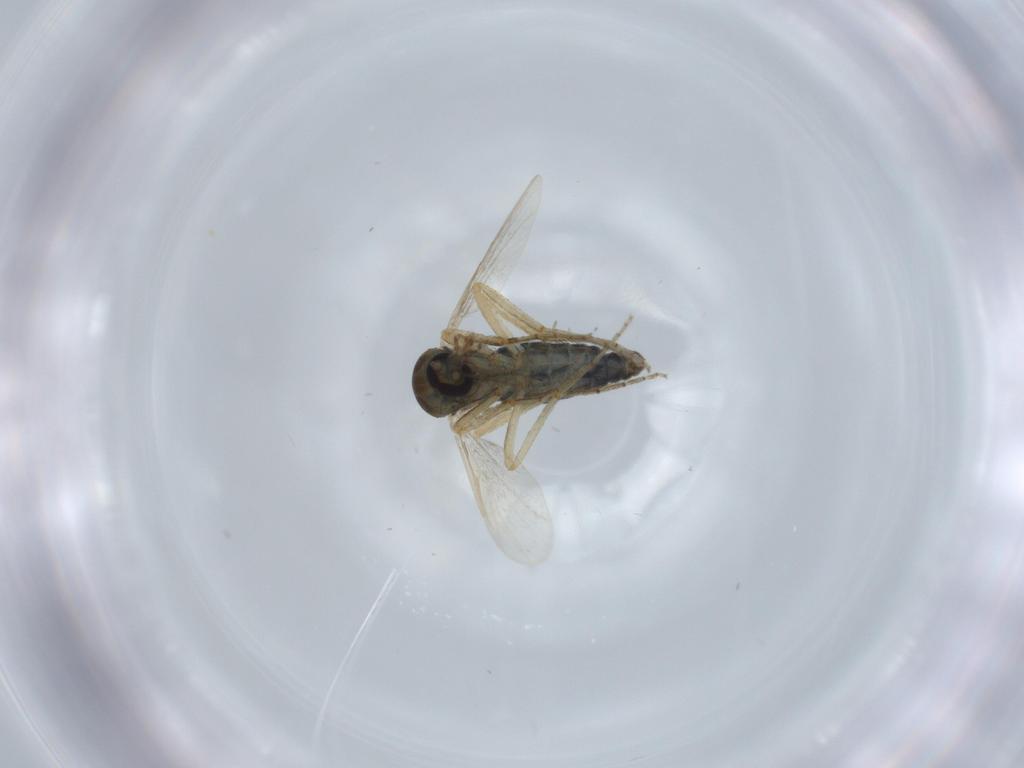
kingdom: Animalia
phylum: Arthropoda
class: Insecta
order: Diptera
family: Ceratopogonidae
